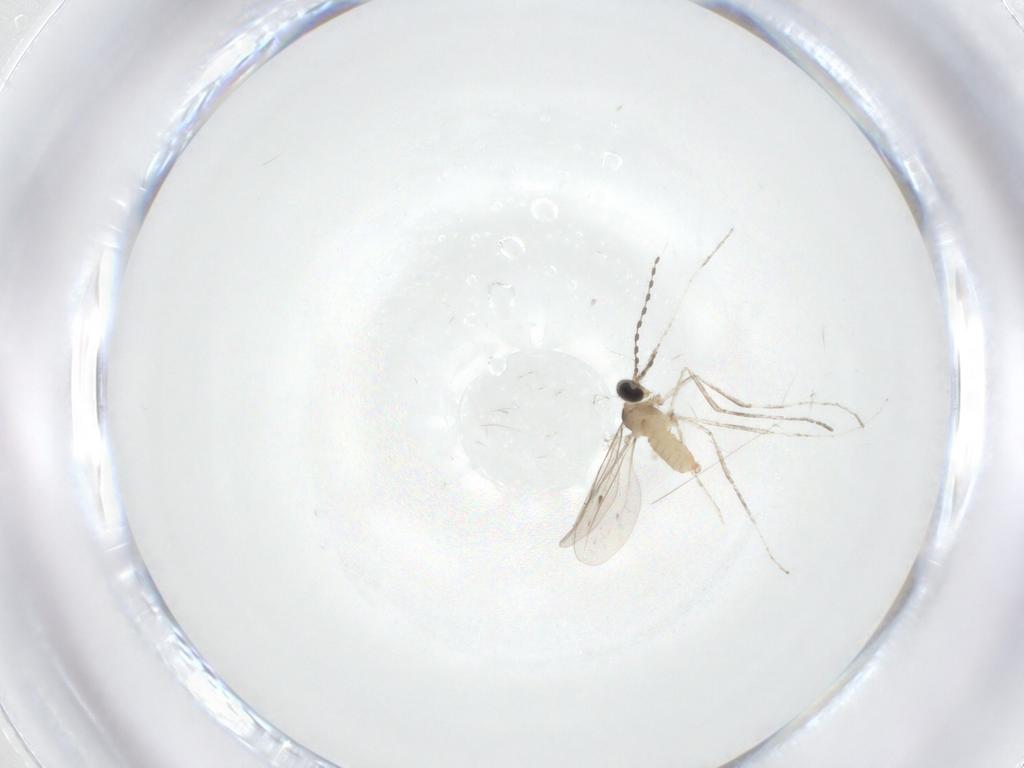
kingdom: Animalia
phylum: Arthropoda
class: Insecta
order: Diptera
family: Cecidomyiidae
